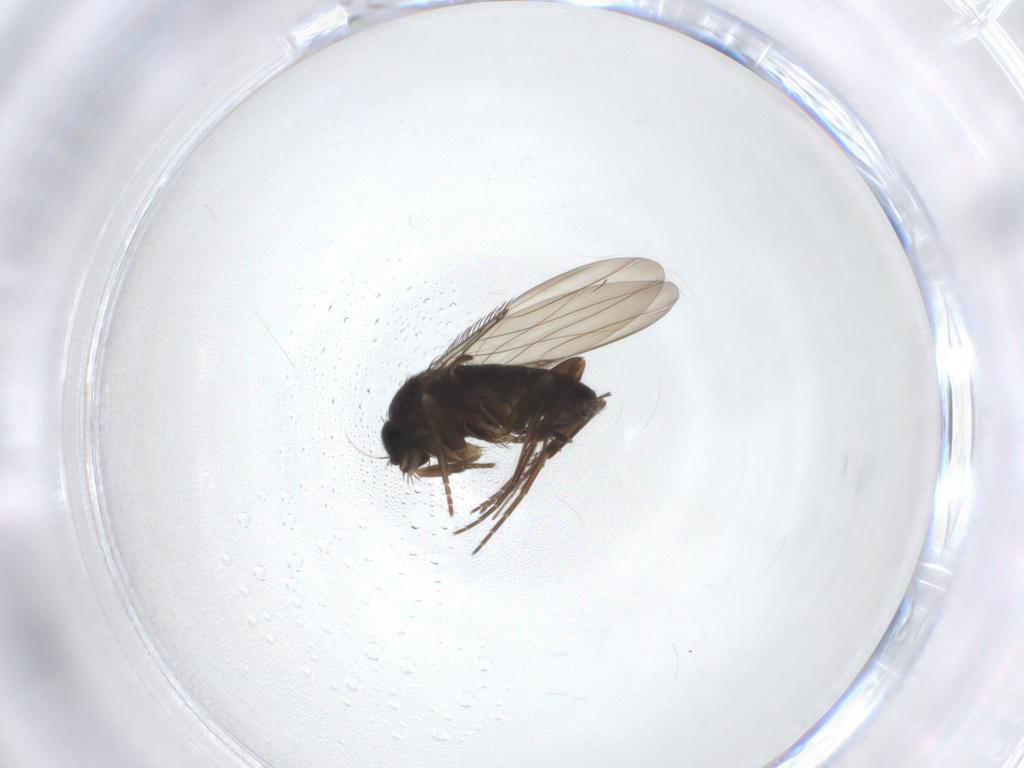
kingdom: Animalia
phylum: Arthropoda
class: Insecta
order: Diptera
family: Phoridae
